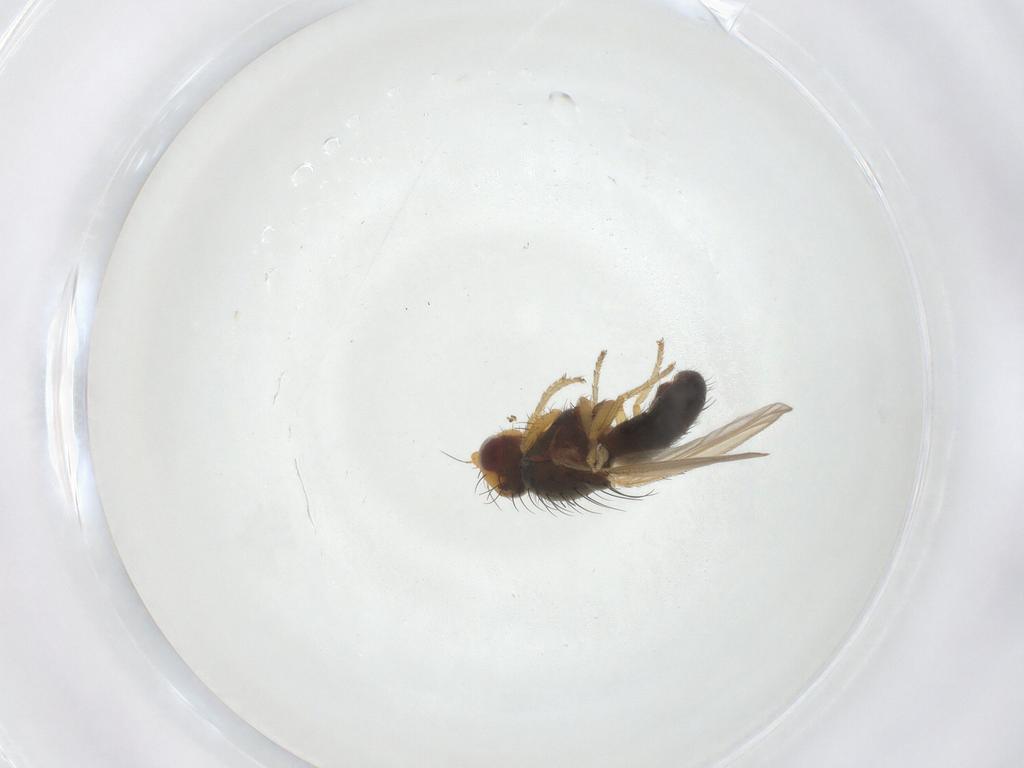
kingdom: Animalia
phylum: Arthropoda
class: Insecta
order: Diptera
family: Heleomyzidae
